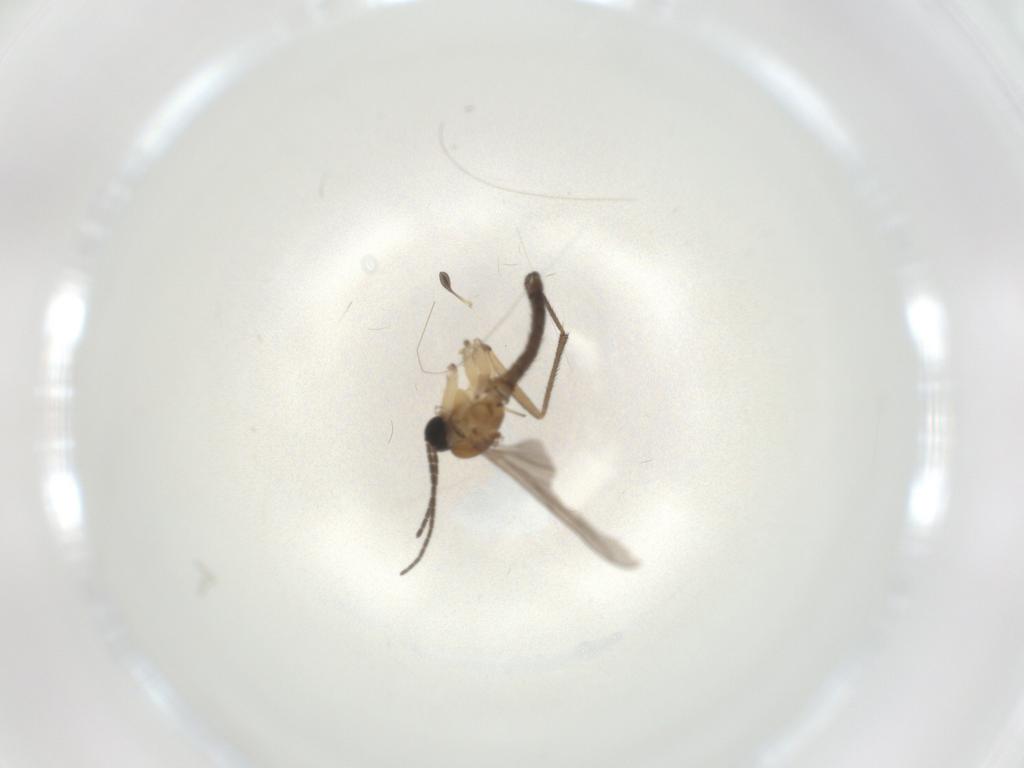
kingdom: Animalia
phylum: Arthropoda
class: Insecta
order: Diptera
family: Sciaridae
